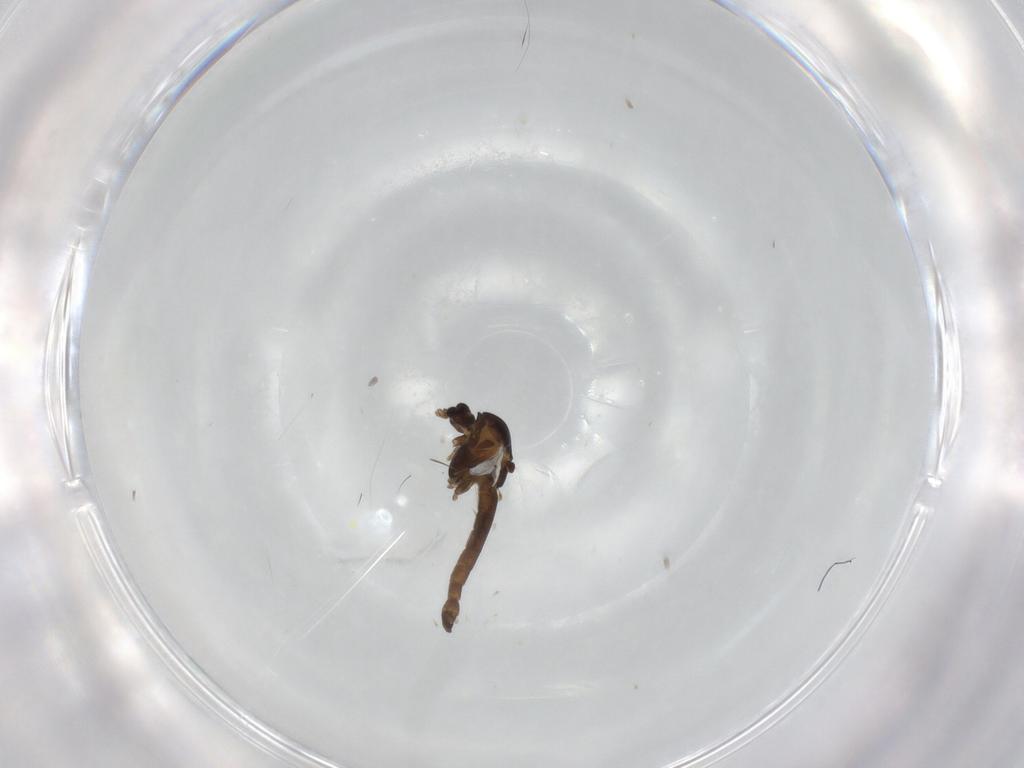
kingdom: Animalia
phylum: Arthropoda
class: Insecta
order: Diptera
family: Chironomidae
